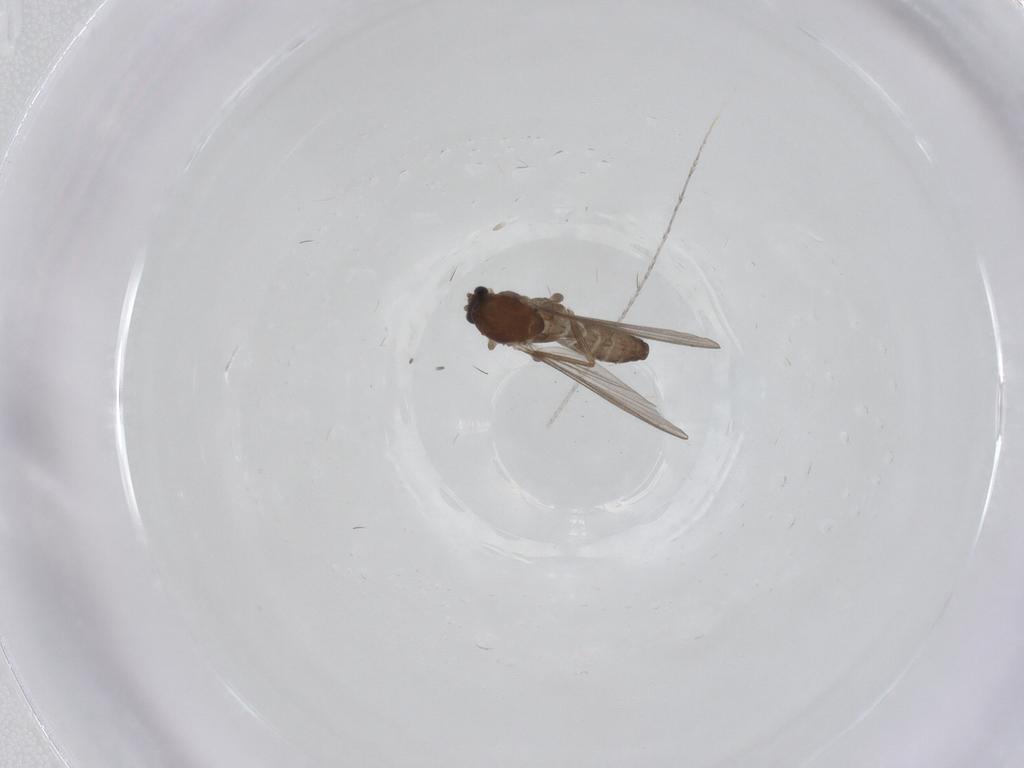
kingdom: Animalia
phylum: Arthropoda
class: Insecta
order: Diptera
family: Chironomidae
